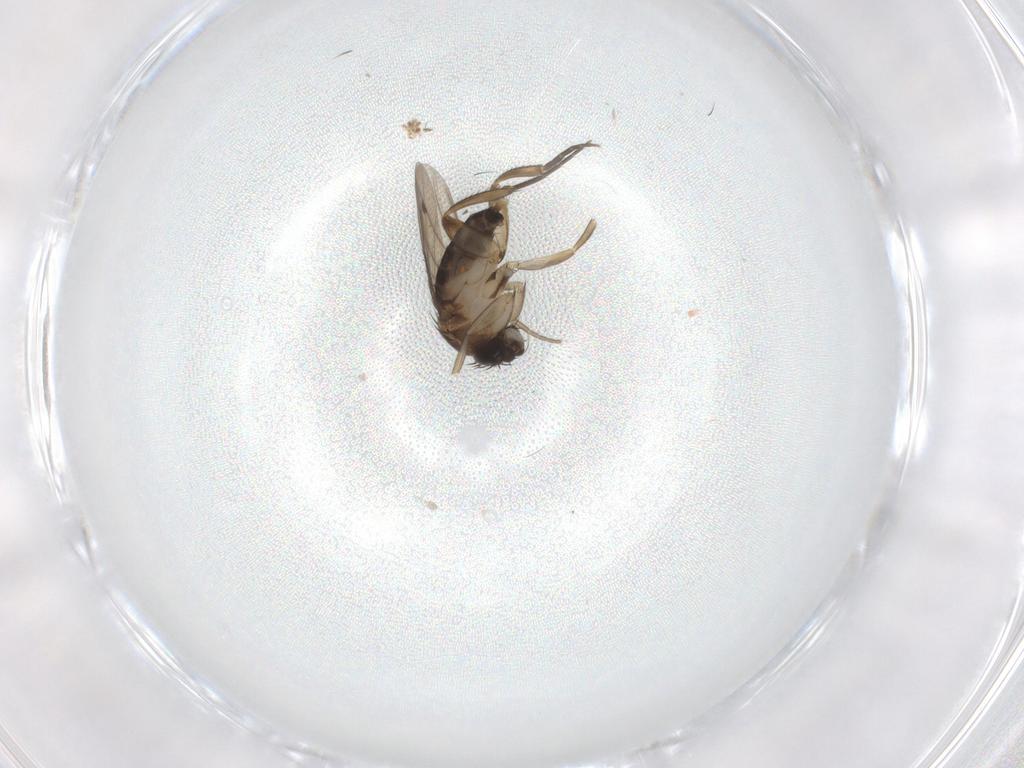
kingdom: Animalia
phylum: Arthropoda
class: Insecta
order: Diptera
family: Phoridae
